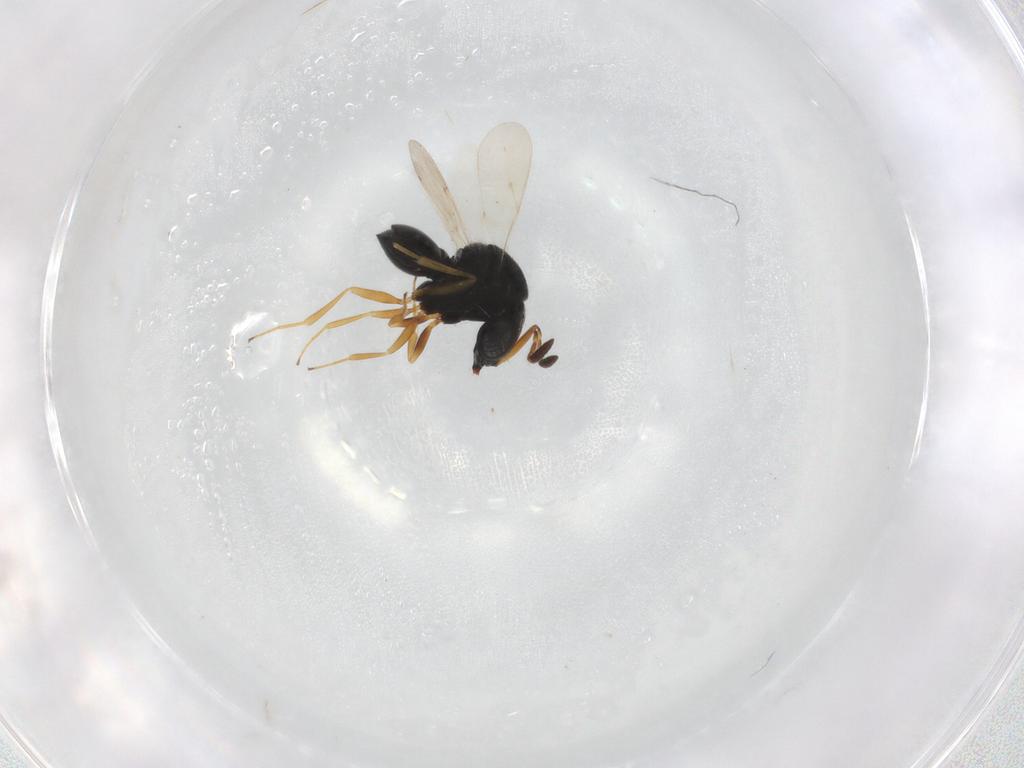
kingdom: Animalia
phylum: Arthropoda
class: Insecta
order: Hymenoptera
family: Scelionidae
